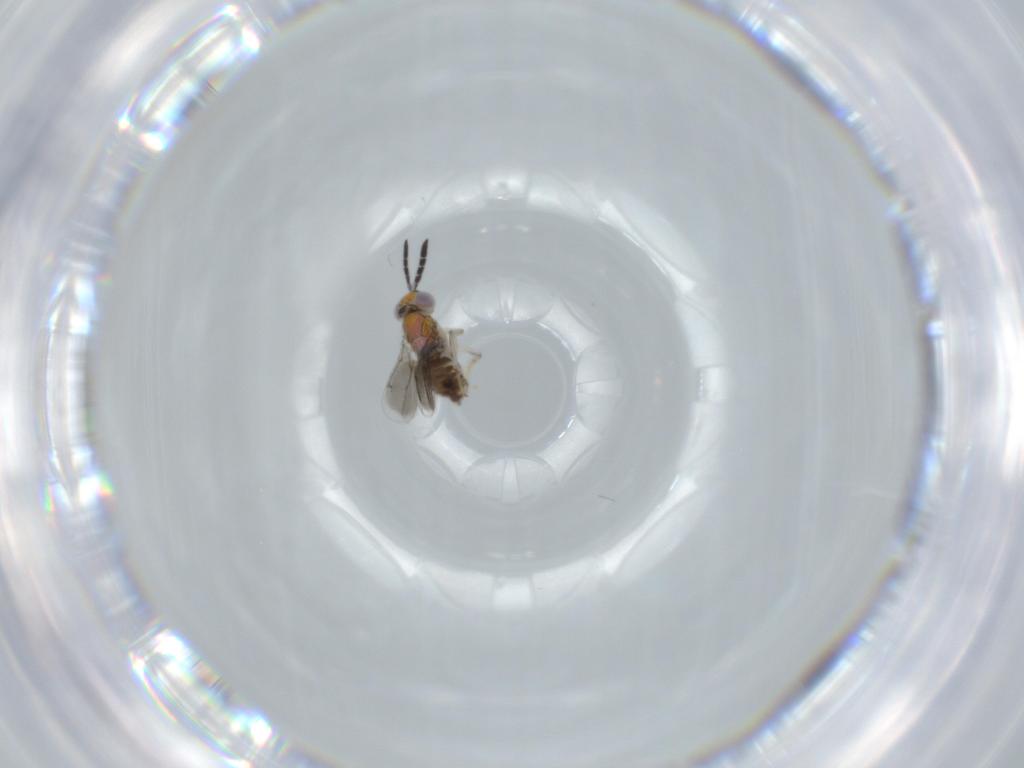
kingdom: Animalia
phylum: Arthropoda
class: Insecta
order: Hymenoptera
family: Aphelinidae
